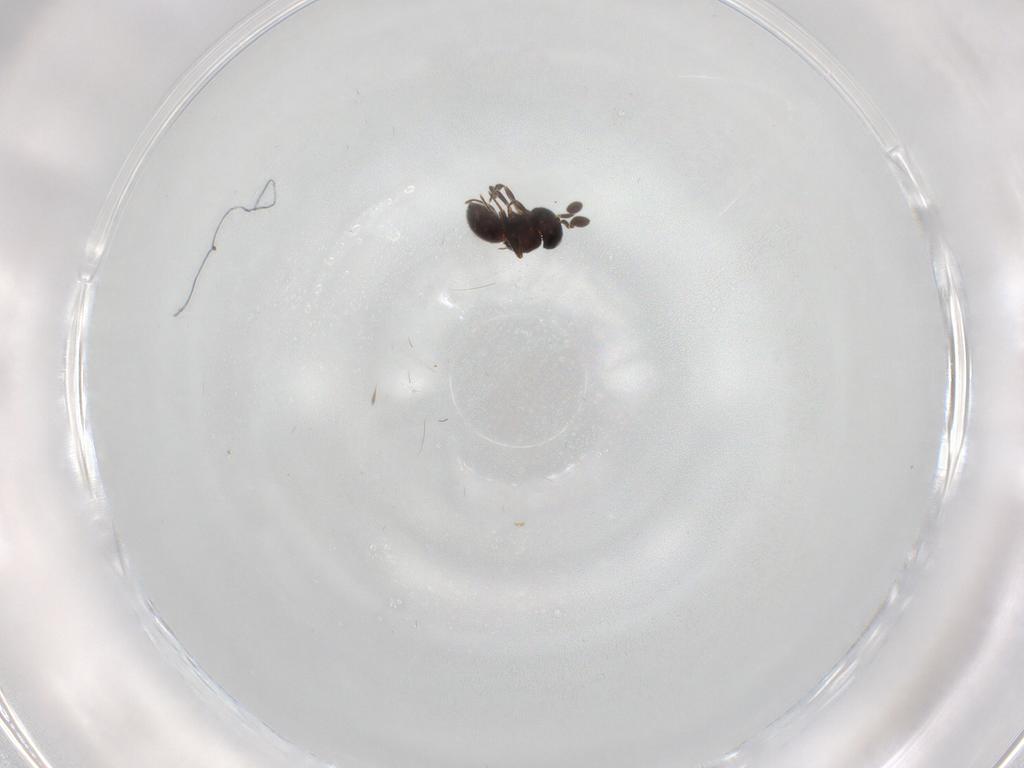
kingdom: Animalia
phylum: Arthropoda
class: Insecta
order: Hymenoptera
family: Scelionidae
